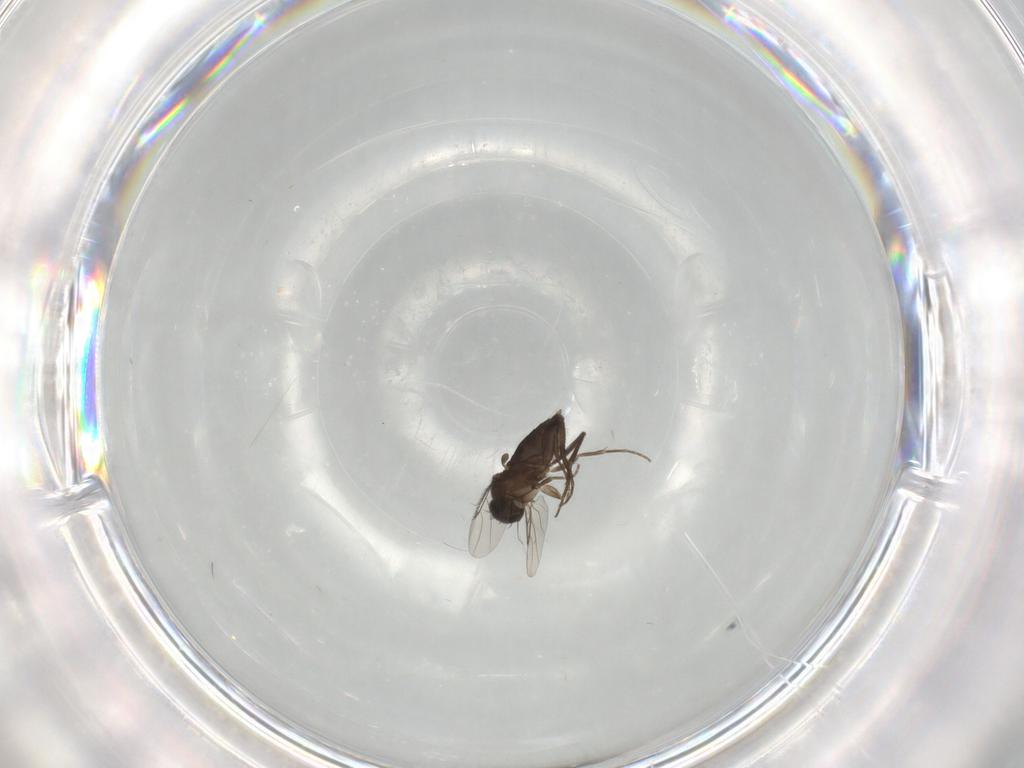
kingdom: Animalia
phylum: Arthropoda
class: Insecta
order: Diptera
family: Phoridae
